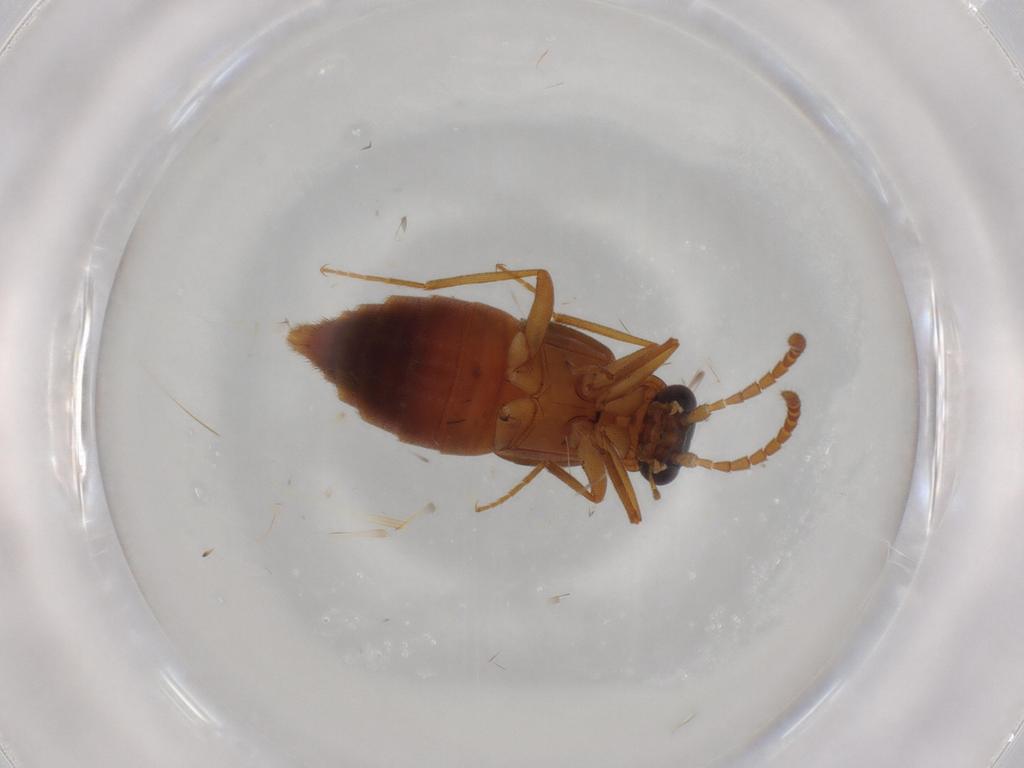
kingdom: Animalia
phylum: Arthropoda
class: Insecta
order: Coleoptera
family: Staphylinidae
